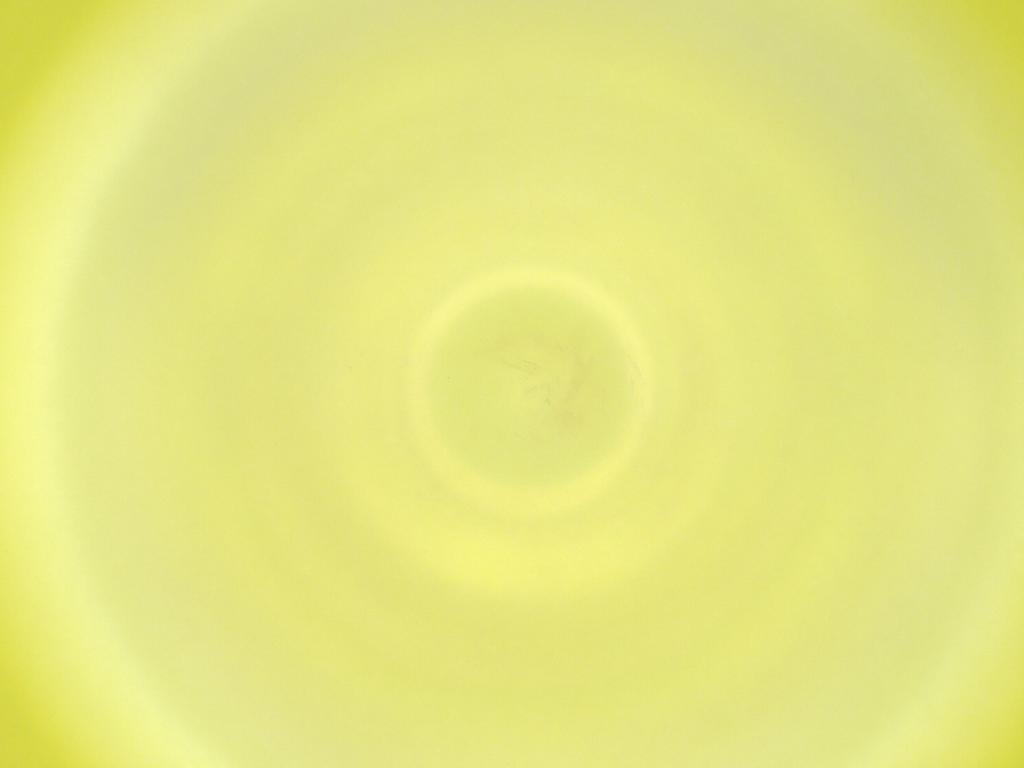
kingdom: Animalia
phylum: Arthropoda
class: Insecta
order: Diptera
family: Cecidomyiidae
